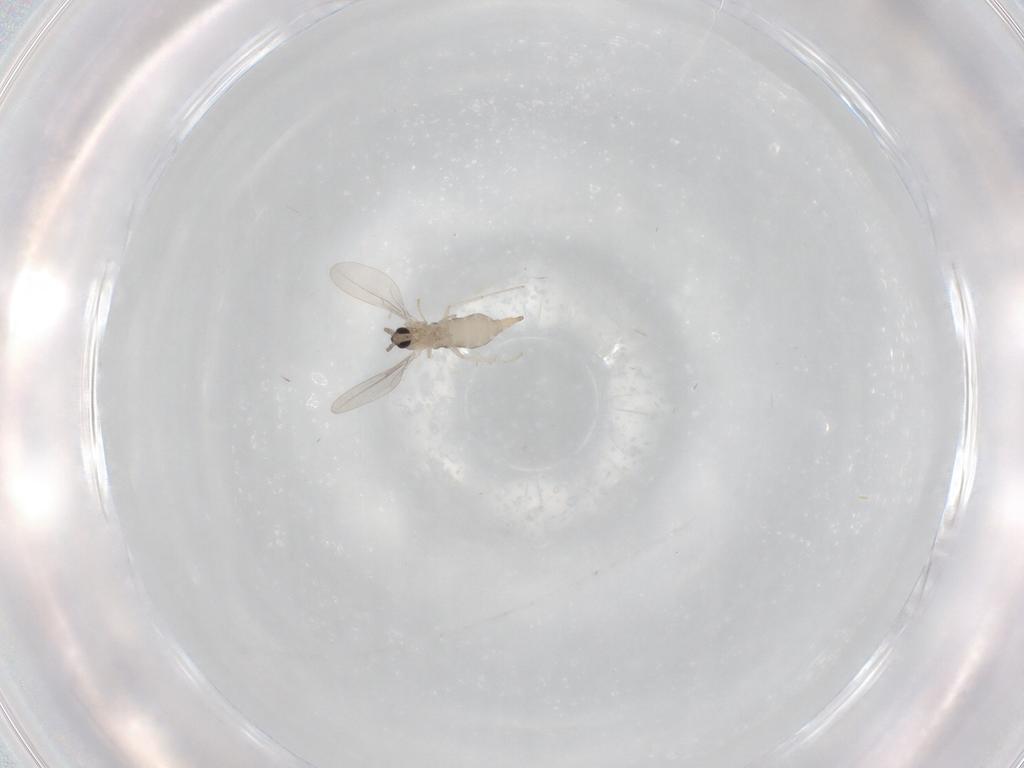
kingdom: Animalia
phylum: Arthropoda
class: Insecta
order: Diptera
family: Cecidomyiidae
